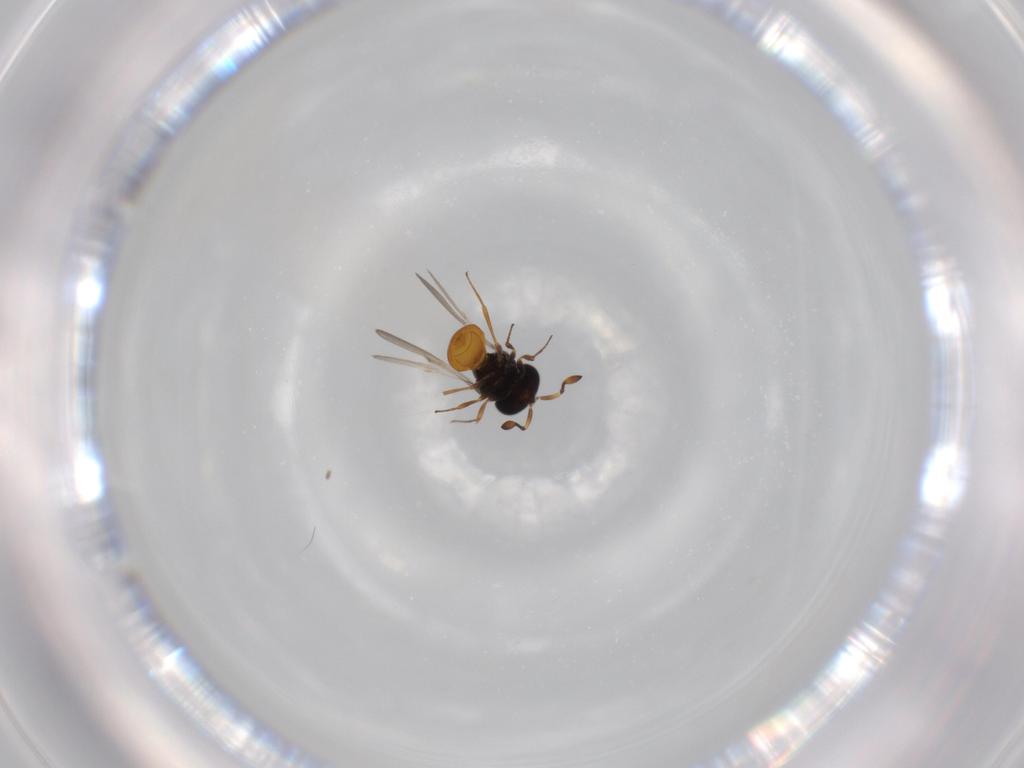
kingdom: Animalia
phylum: Arthropoda
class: Insecta
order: Hymenoptera
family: Scelionidae
